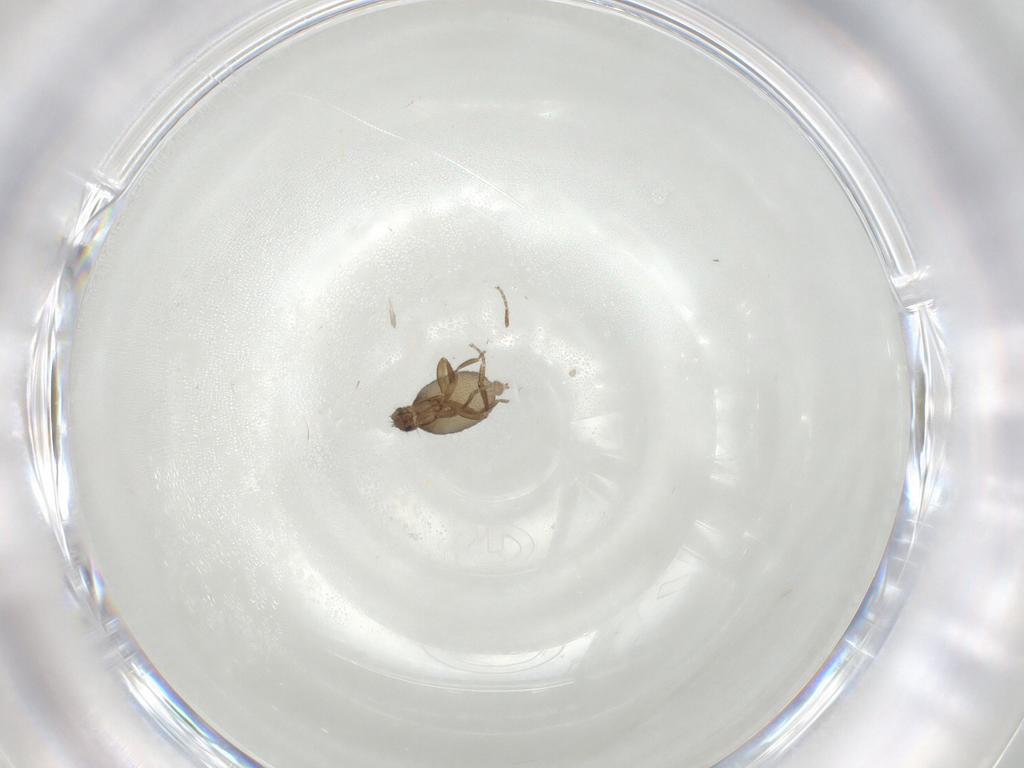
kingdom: Animalia
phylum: Arthropoda
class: Insecta
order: Diptera
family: Phoridae
